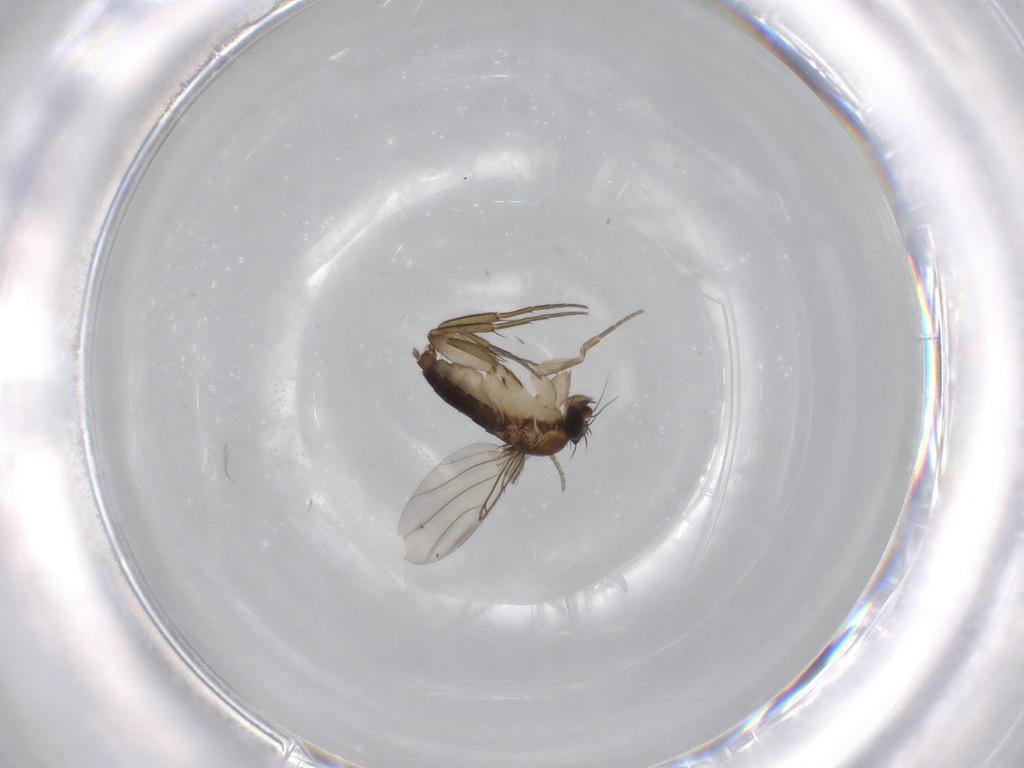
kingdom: Animalia
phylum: Arthropoda
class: Insecta
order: Diptera
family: Phoridae
